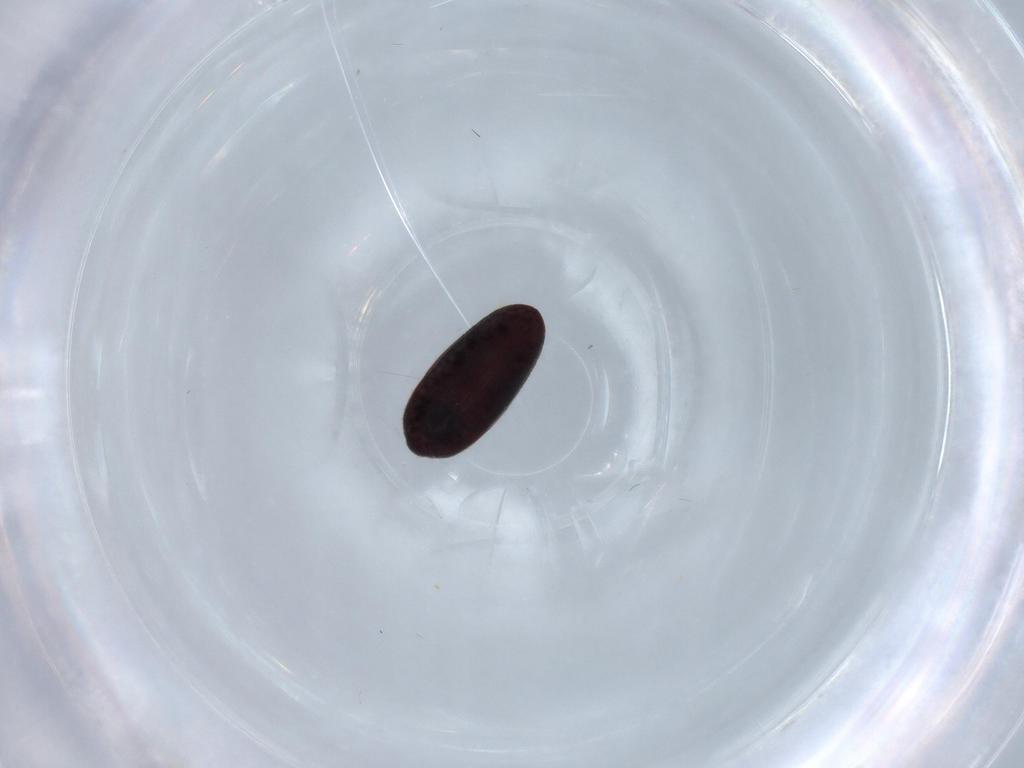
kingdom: Animalia
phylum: Arthropoda
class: Insecta
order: Coleoptera
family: Throscidae
